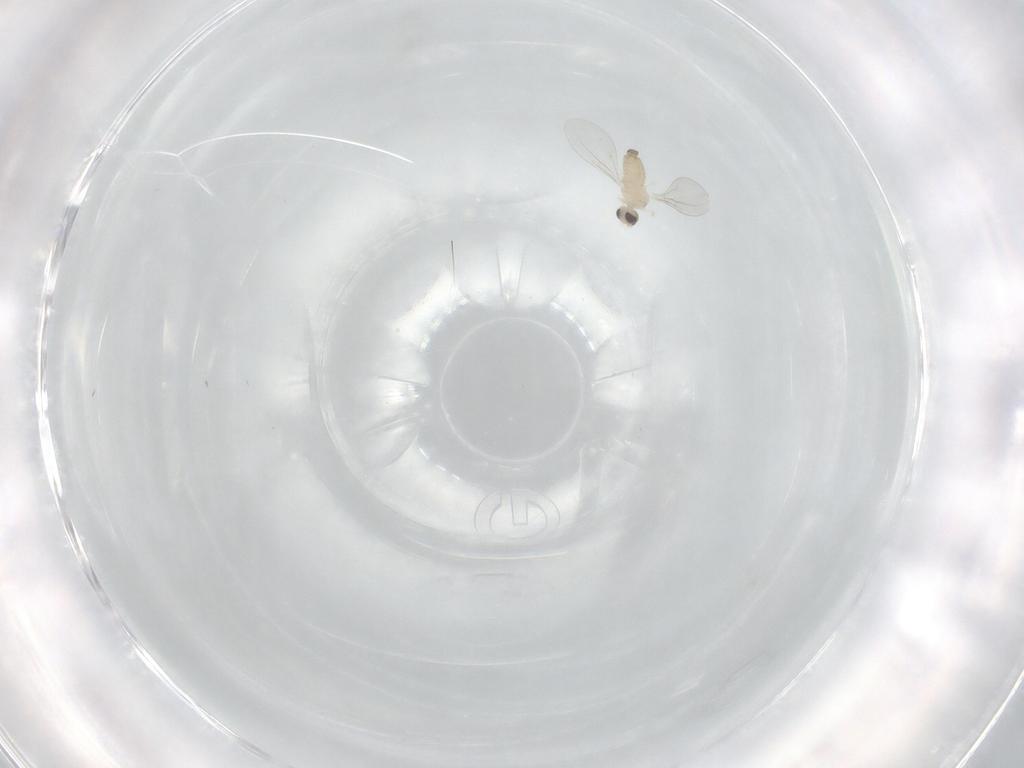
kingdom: Animalia
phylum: Arthropoda
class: Insecta
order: Diptera
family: Cecidomyiidae
